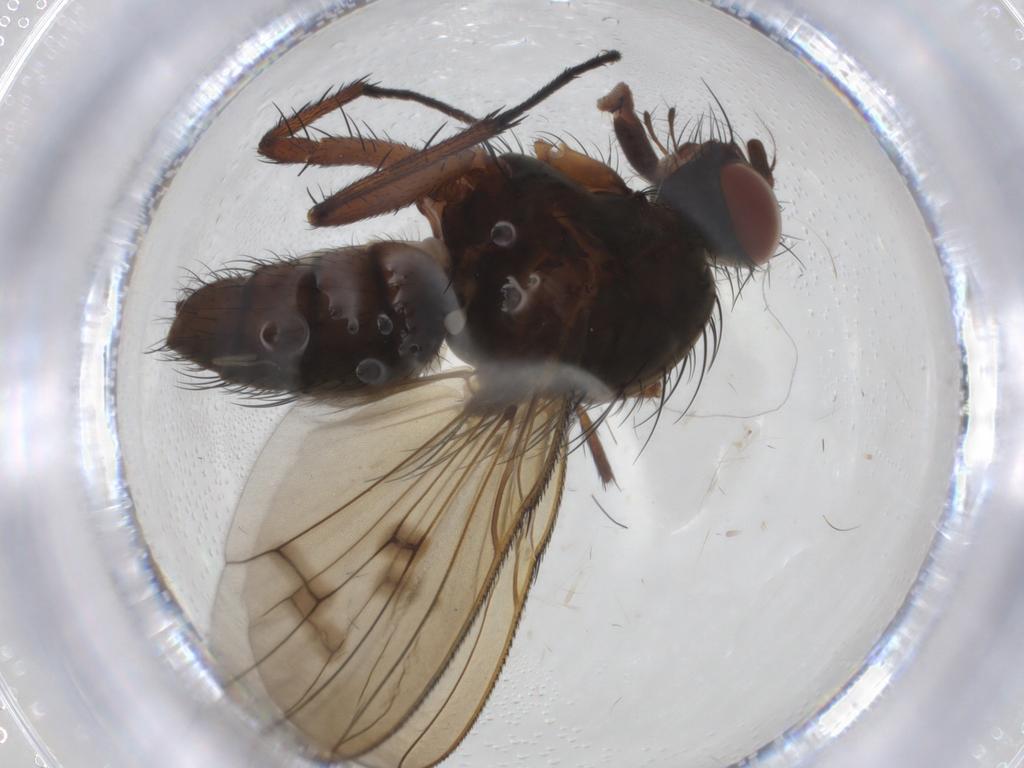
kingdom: Animalia
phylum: Arthropoda
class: Insecta
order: Diptera
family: Anthomyiidae
